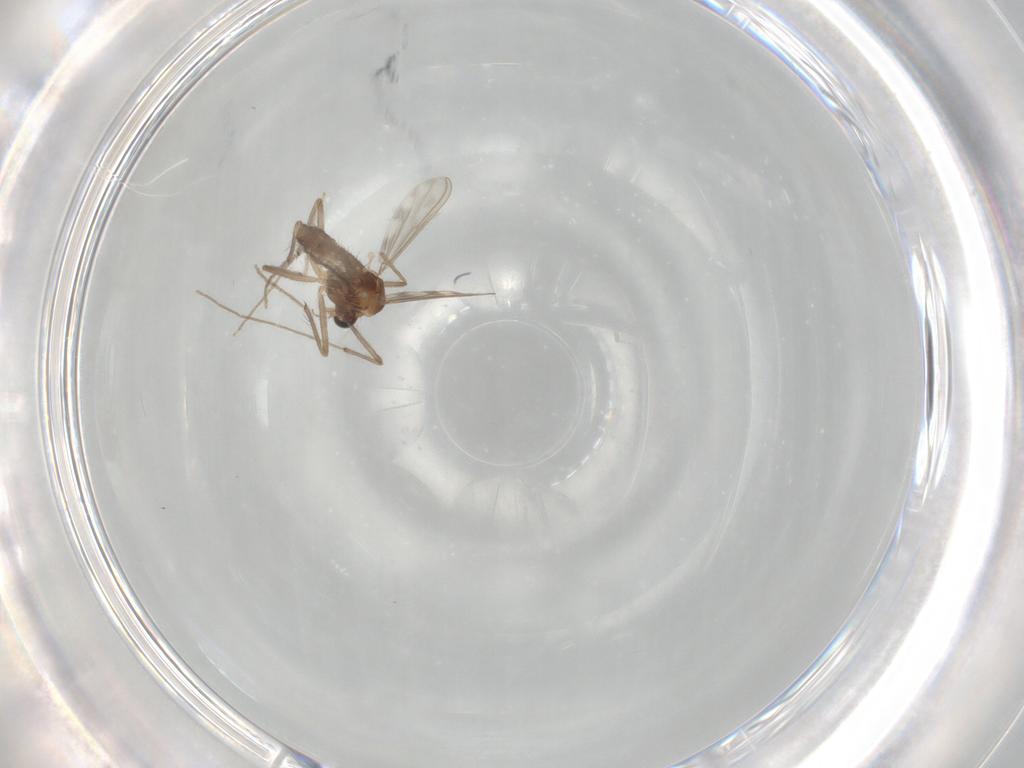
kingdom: Animalia
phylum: Arthropoda
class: Insecta
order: Diptera
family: Chironomidae
